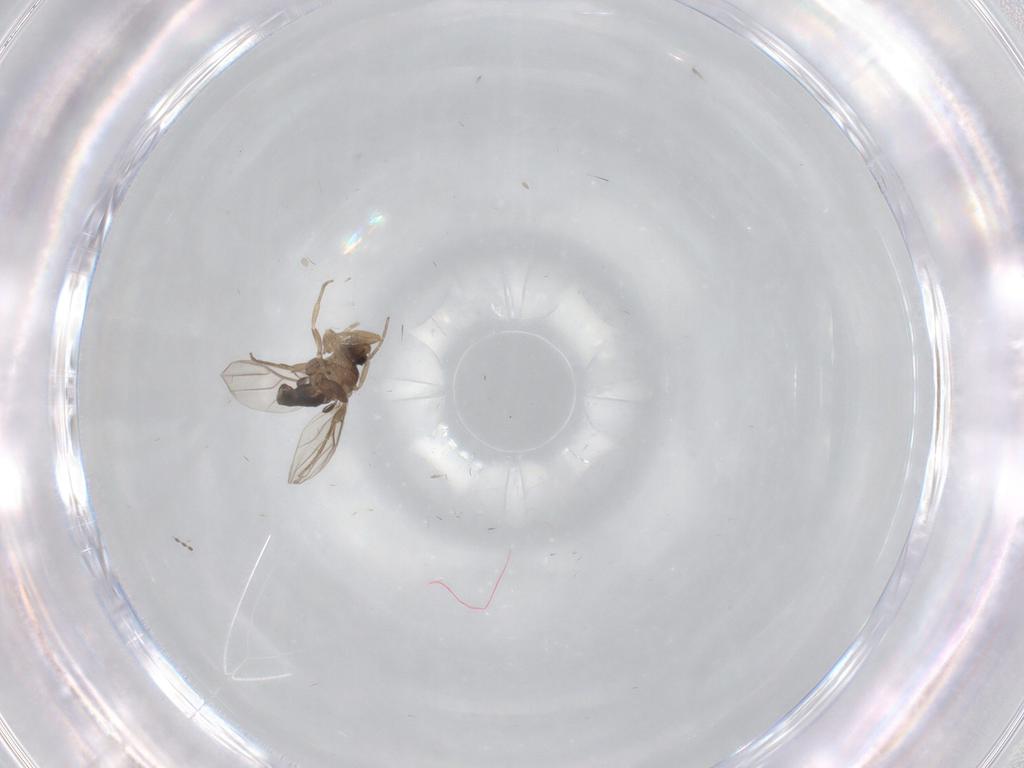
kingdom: Animalia
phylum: Arthropoda
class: Insecta
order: Diptera
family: Phoridae
